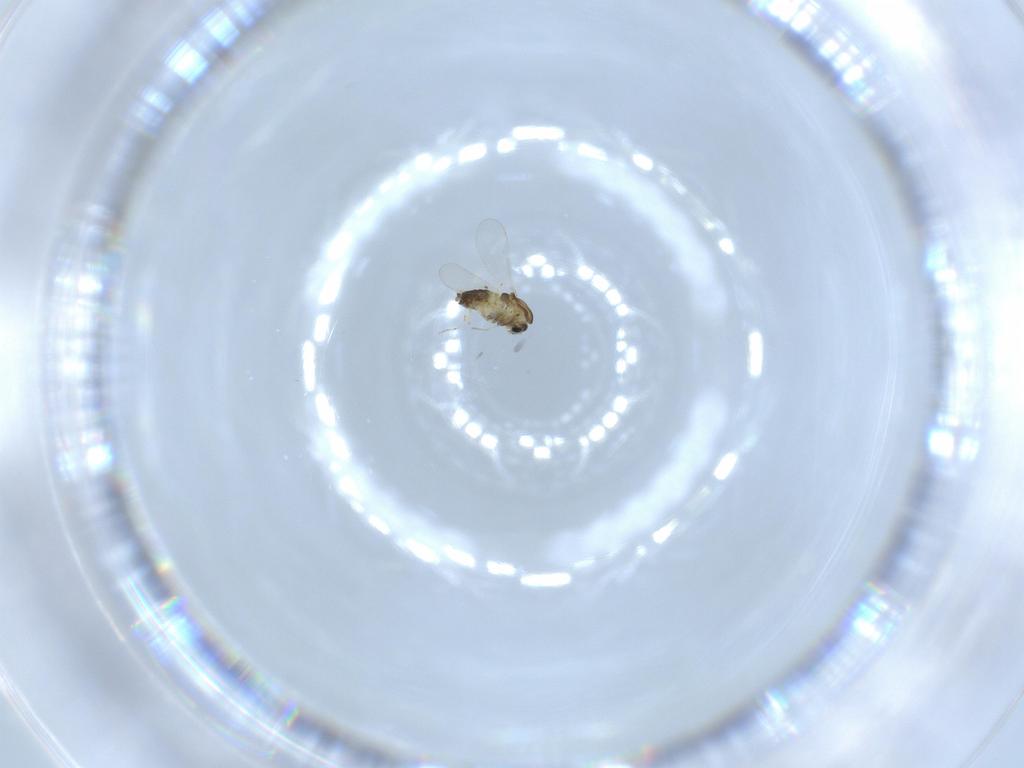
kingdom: Animalia
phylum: Arthropoda
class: Insecta
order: Diptera
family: Chironomidae
